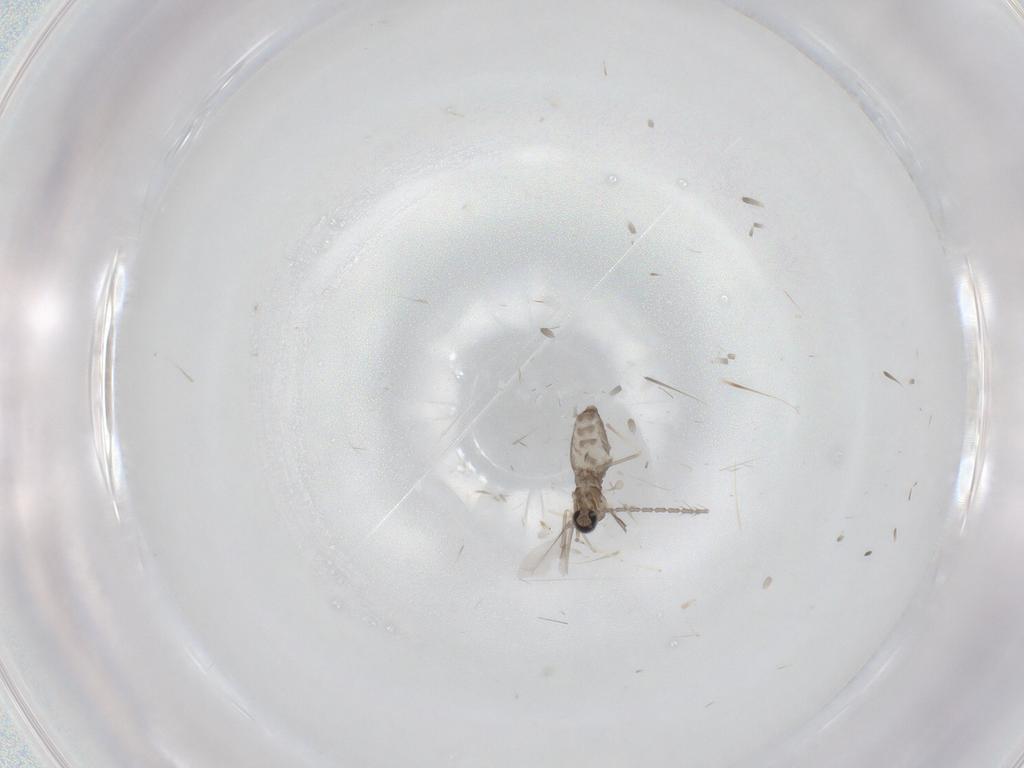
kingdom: Animalia
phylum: Arthropoda
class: Insecta
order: Diptera
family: Cecidomyiidae
